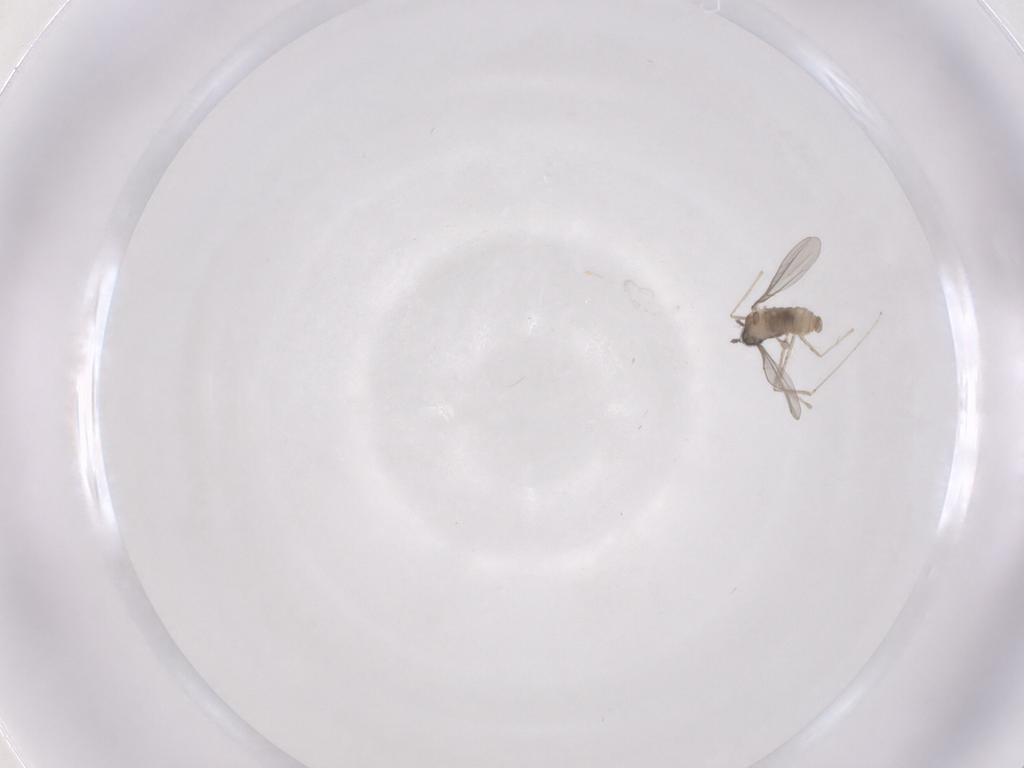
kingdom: Animalia
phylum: Arthropoda
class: Insecta
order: Diptera
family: Cecidomyiidae
